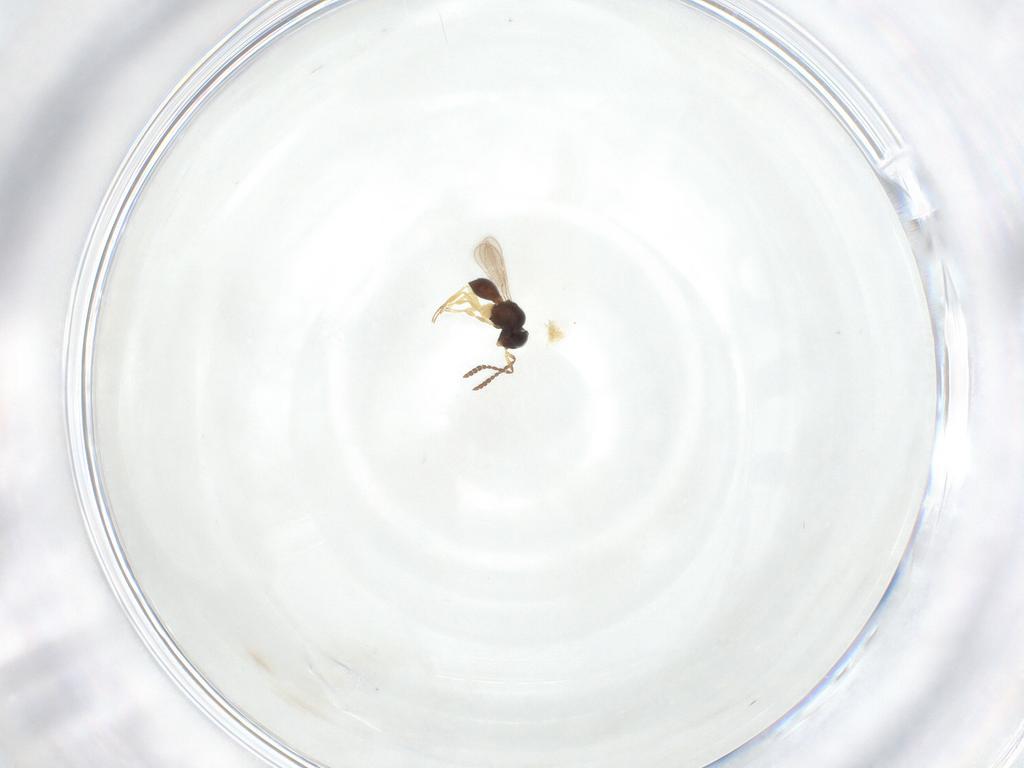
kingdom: Animalia
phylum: Arthropoda
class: Insecta
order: Hymenoptera
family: Scelionidae
